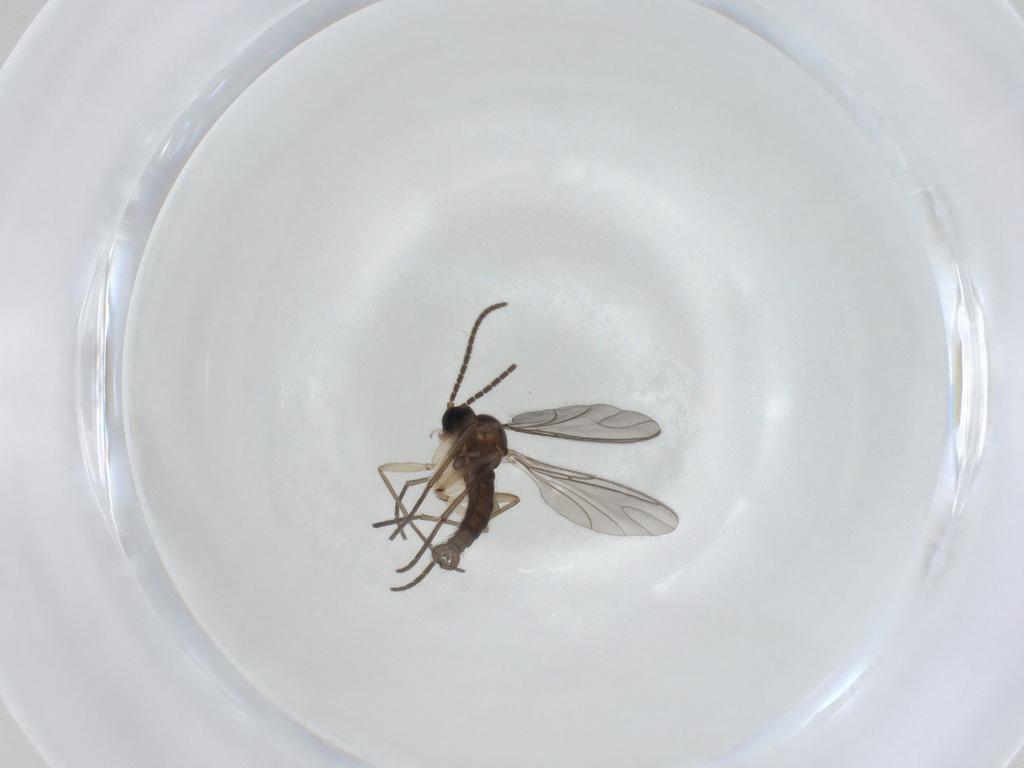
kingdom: Animalia
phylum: Arthropoda
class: Insecta
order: Diptera
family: Sciaridae
